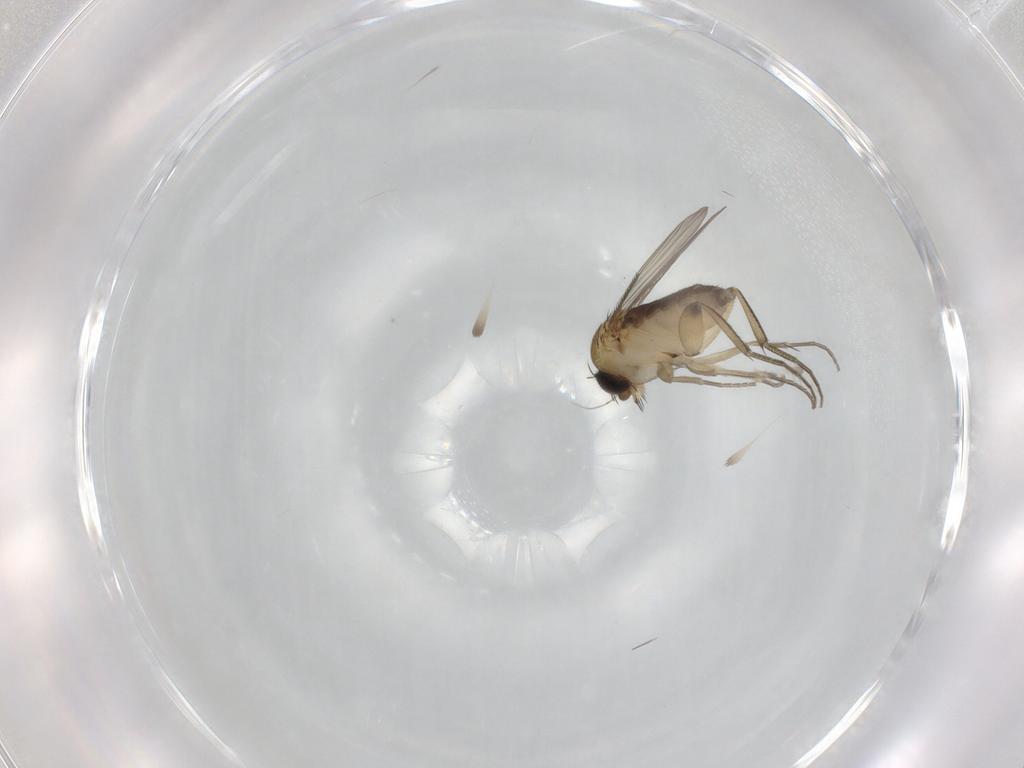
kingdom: Animalia
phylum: Arthropoda
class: Insecta
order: Diptera
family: Phoridae
